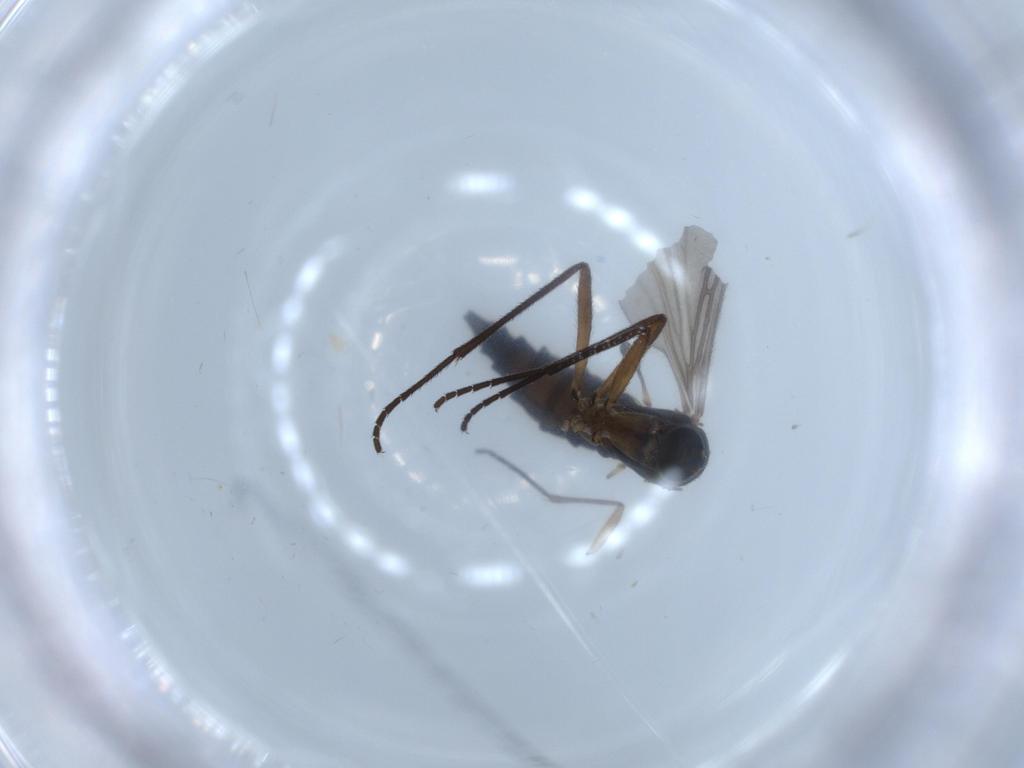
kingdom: Animalia
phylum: Arthropoda
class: Insecta
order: Diptera
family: Sciaridae
